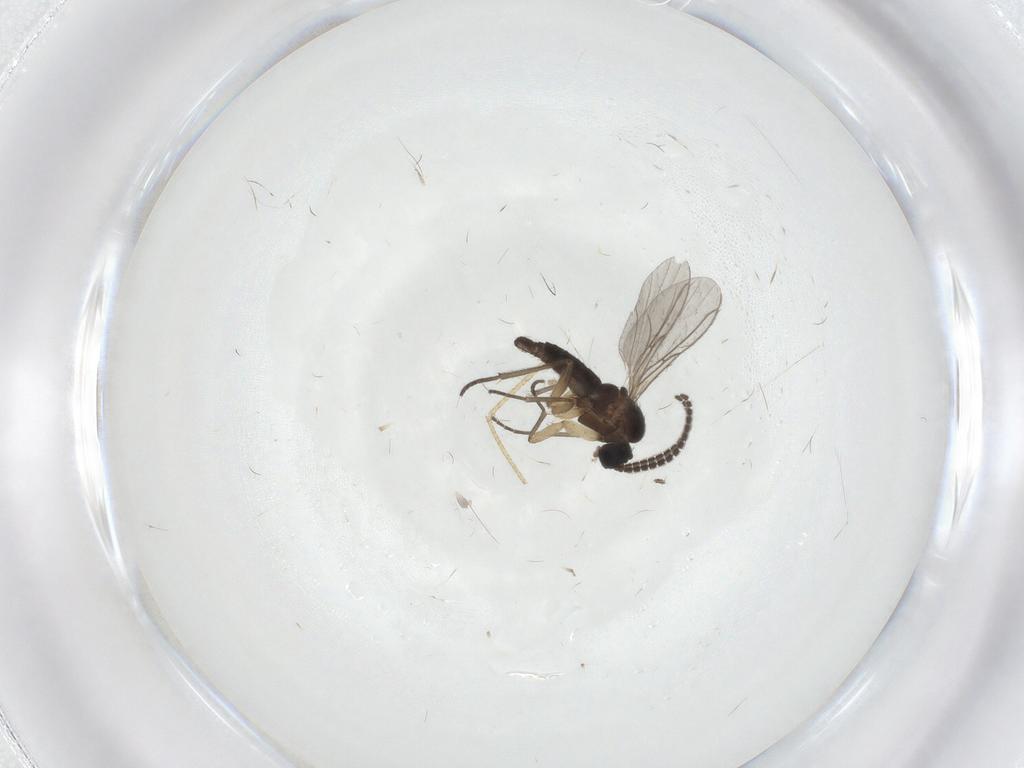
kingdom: Animalia
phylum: Arthropoda
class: Insecta
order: Diptera
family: Sciaridae
